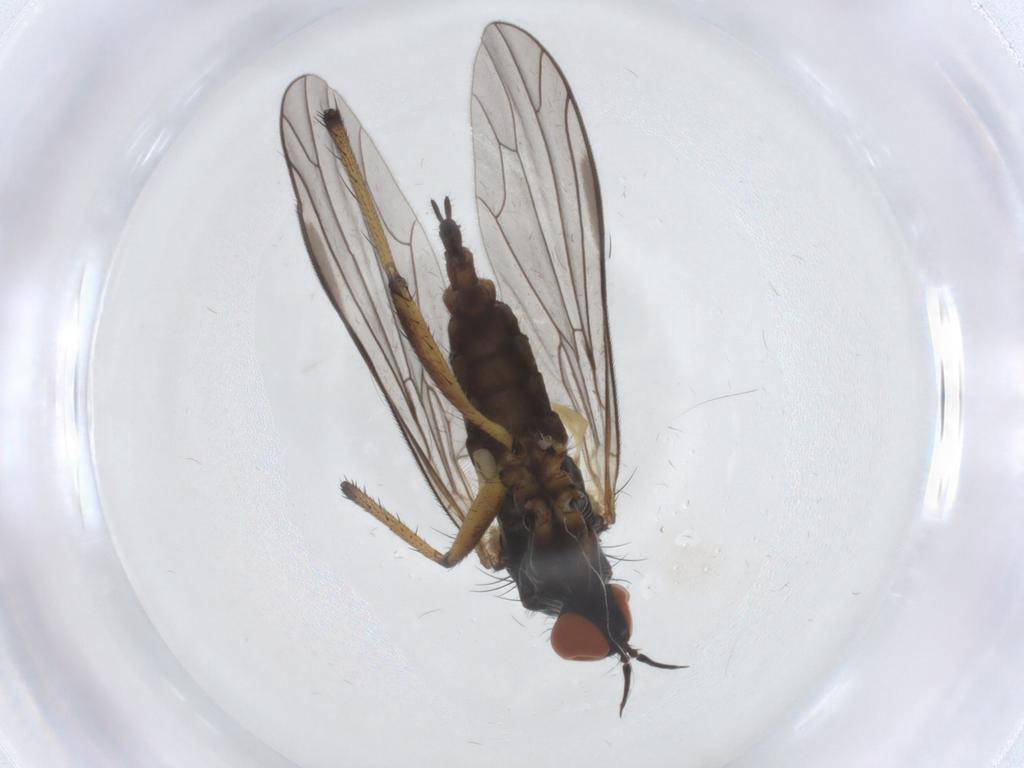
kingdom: Animalia
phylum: Arthropoda
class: Insecta
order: Diptera
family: Empididae
